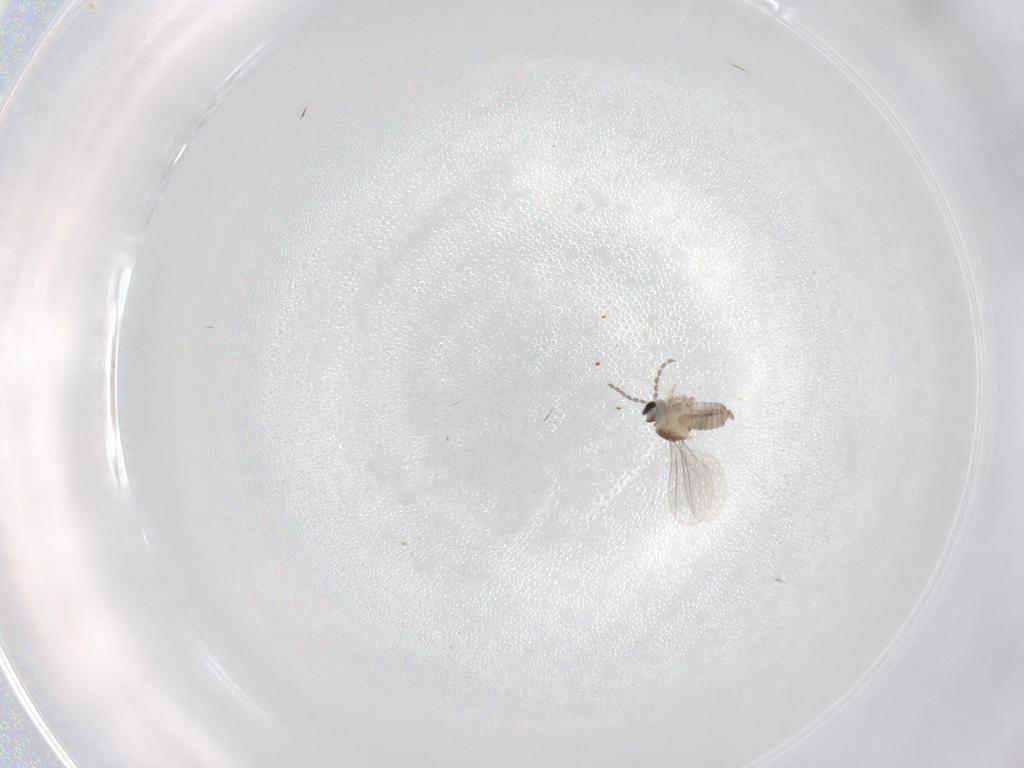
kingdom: Animalia
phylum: Arthropoda
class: Insecta
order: Diptera
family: Cecidomyiidae
